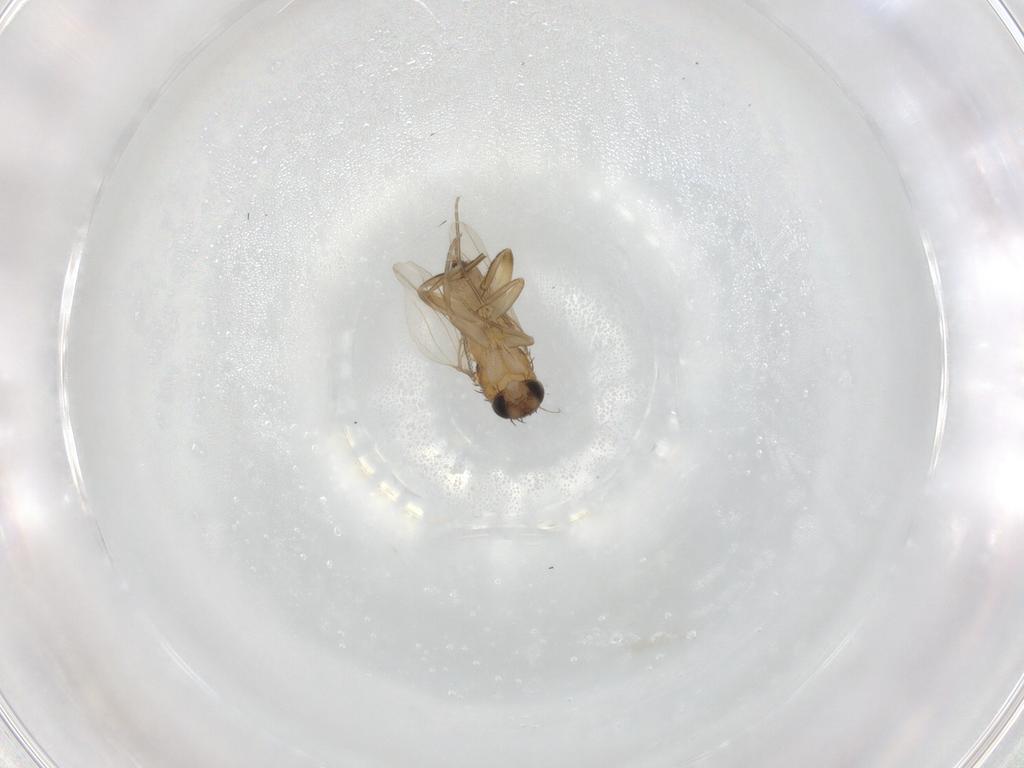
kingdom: Animalia
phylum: Arthropoda
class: Insecta
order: Diptera
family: Phoridae
